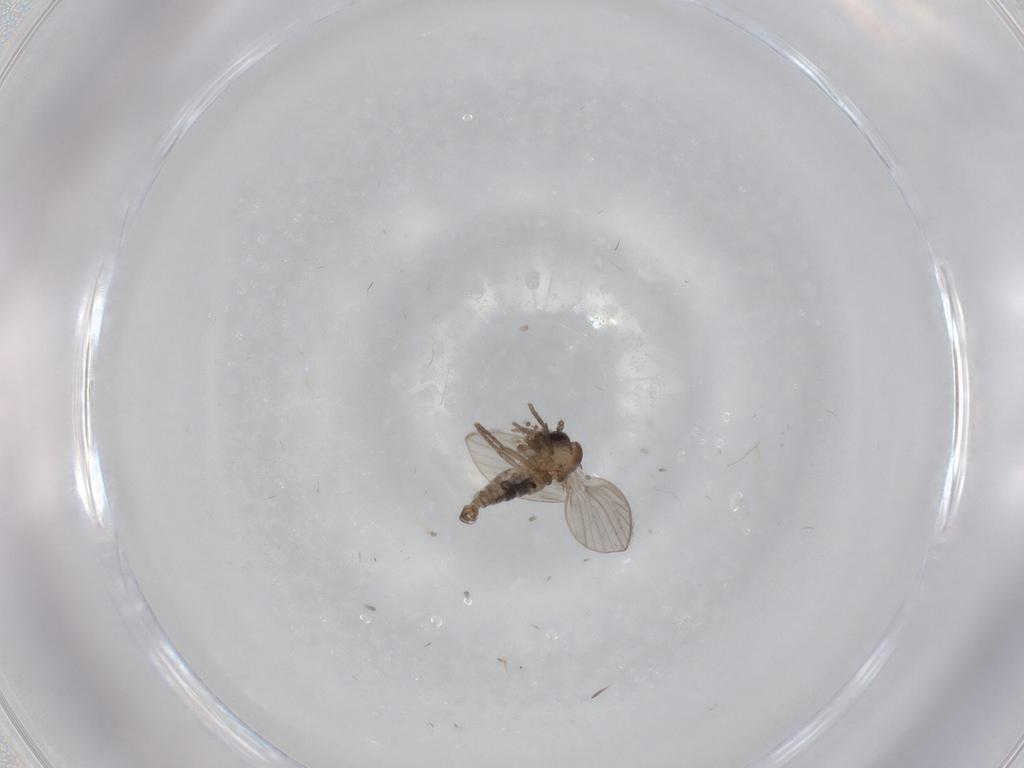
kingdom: Animalia
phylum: Arthropoda
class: Insecta
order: Diptera
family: Psychodidae
